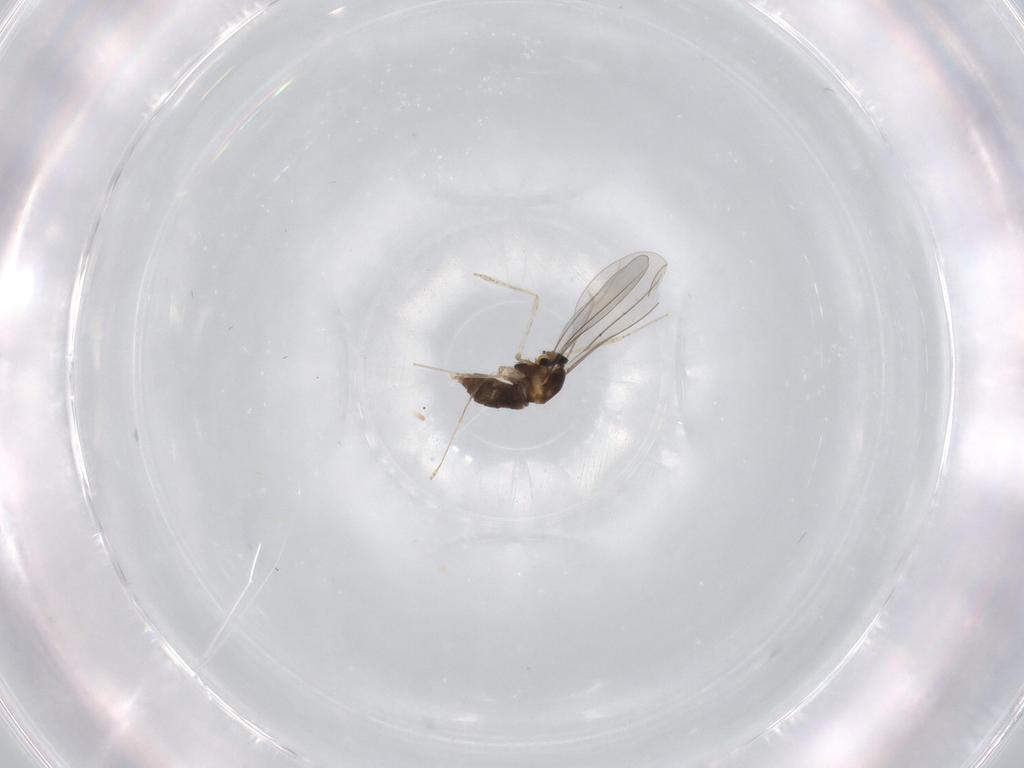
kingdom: Animalia
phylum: Arthropoda
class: Insecta
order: Diptera
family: Cecidomyiidae
